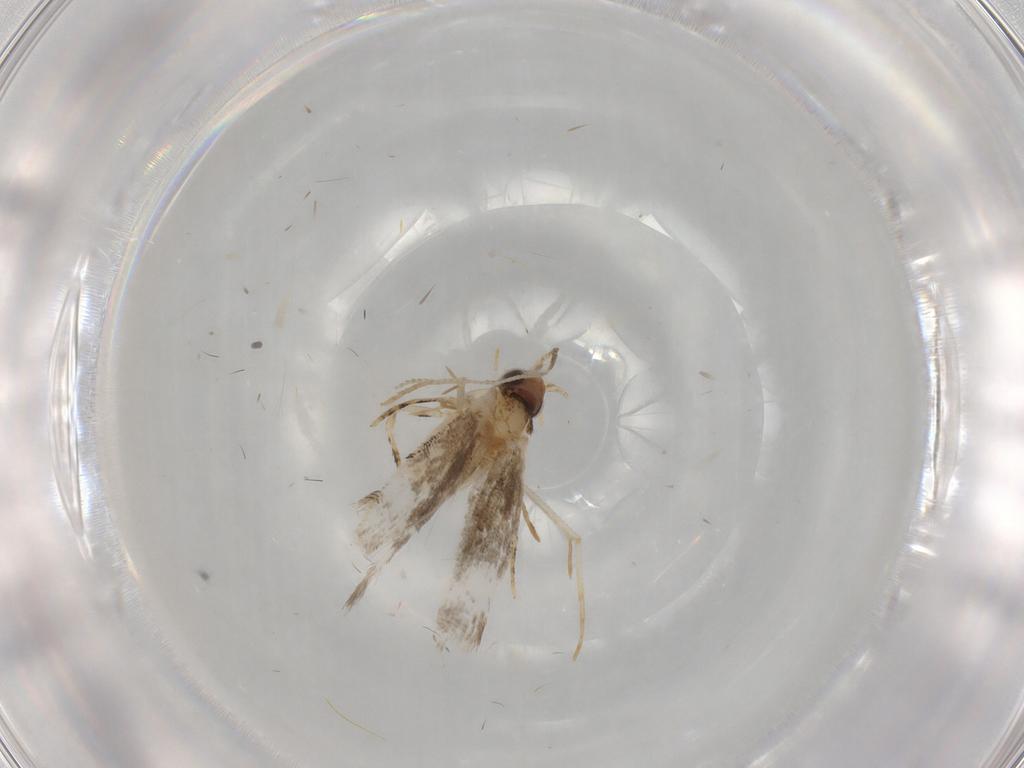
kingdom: Animalia
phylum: Arthropoda
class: Insecta
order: Lepidoptera
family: Tineidae
